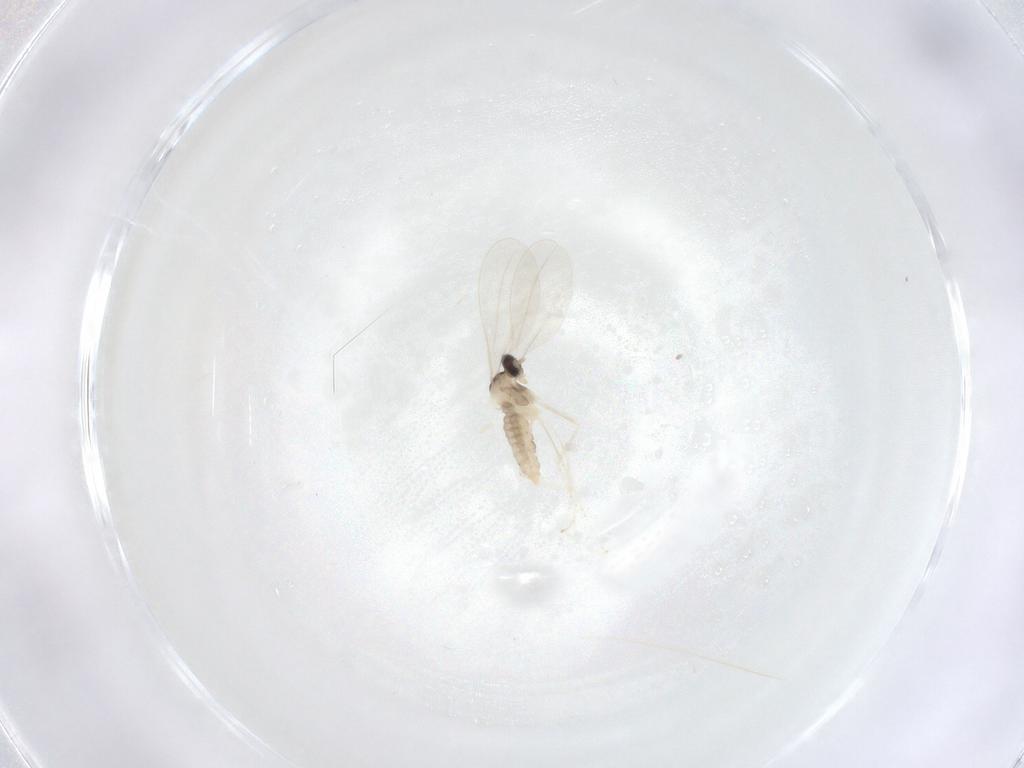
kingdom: Animalia
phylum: Arthropoda
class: Insecta
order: Diptera
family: Cecidomyiidae
